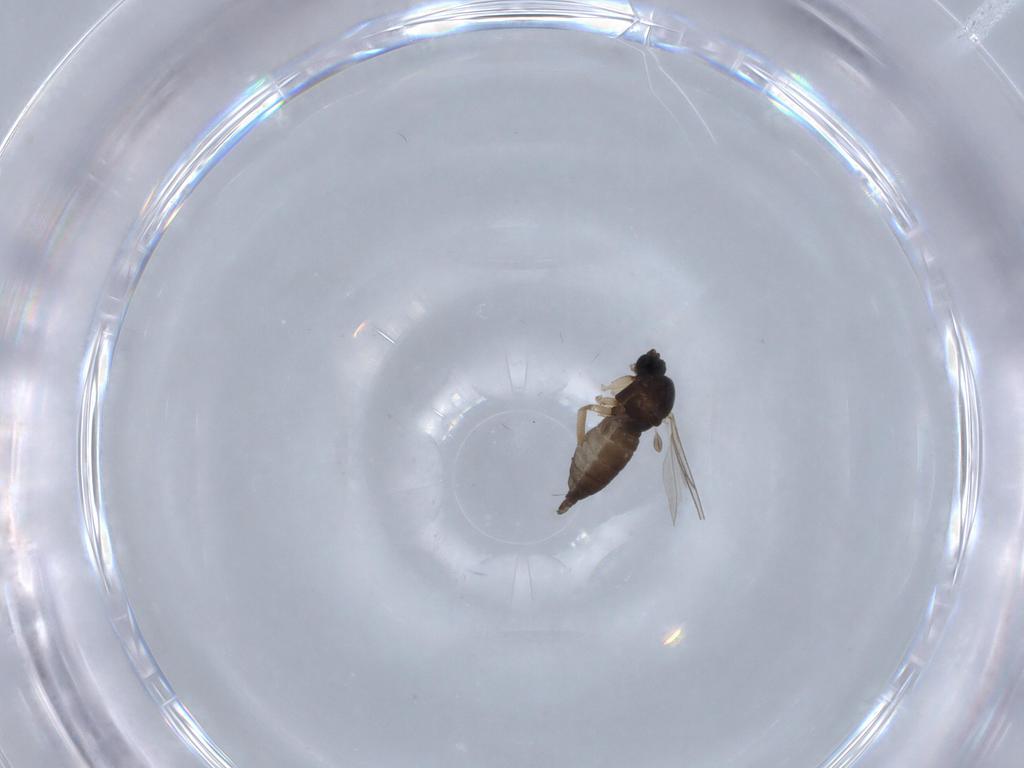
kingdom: Animalia
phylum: Arthropoda
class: Insecta
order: Diptera
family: Sciaridae
